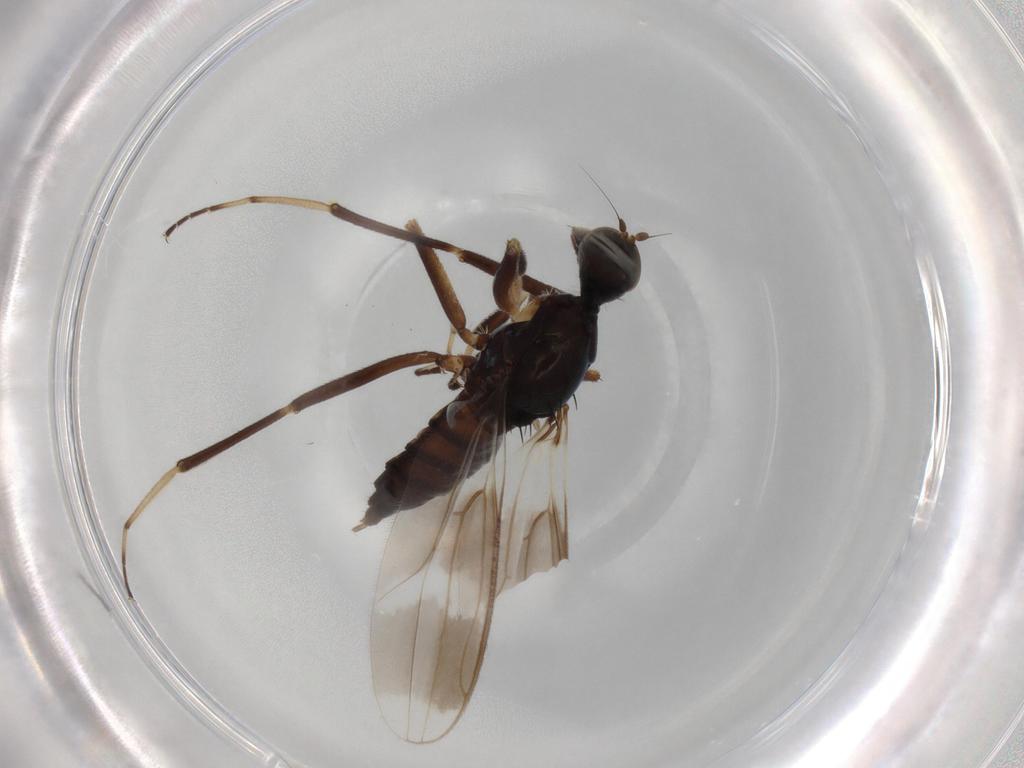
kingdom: Animalia
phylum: Arthropoda
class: Insecta
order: Diptera
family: Hybotidae
